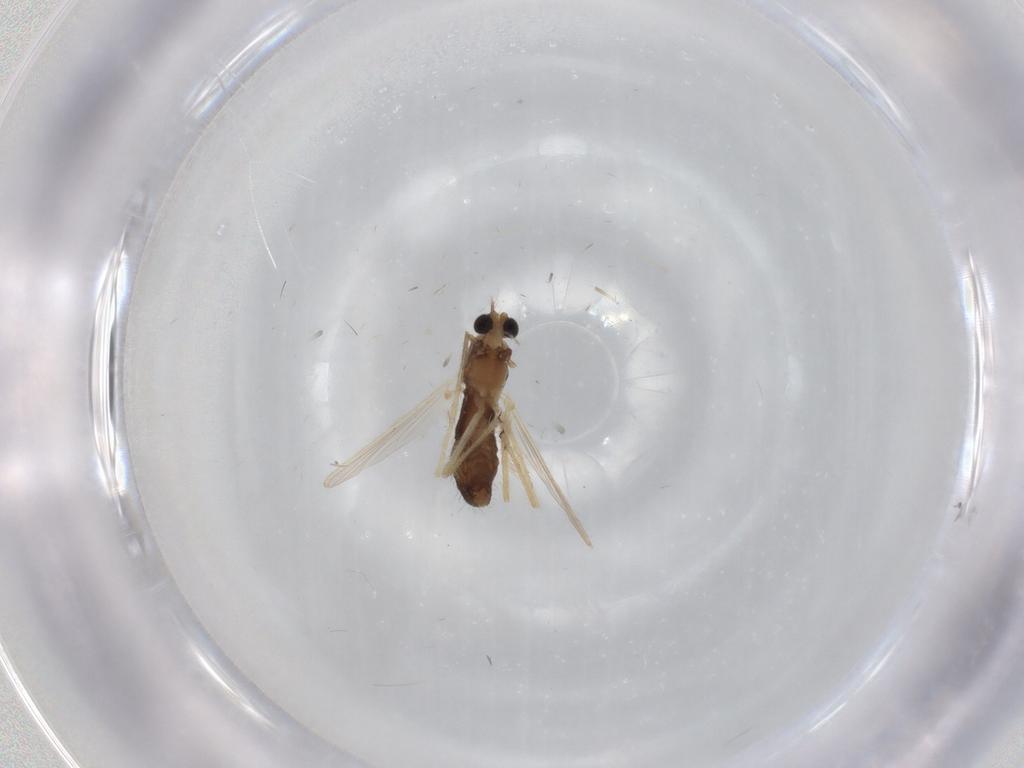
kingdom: Animalia
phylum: Arthropoda
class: Insecta
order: Diptera
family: Chironomidae
